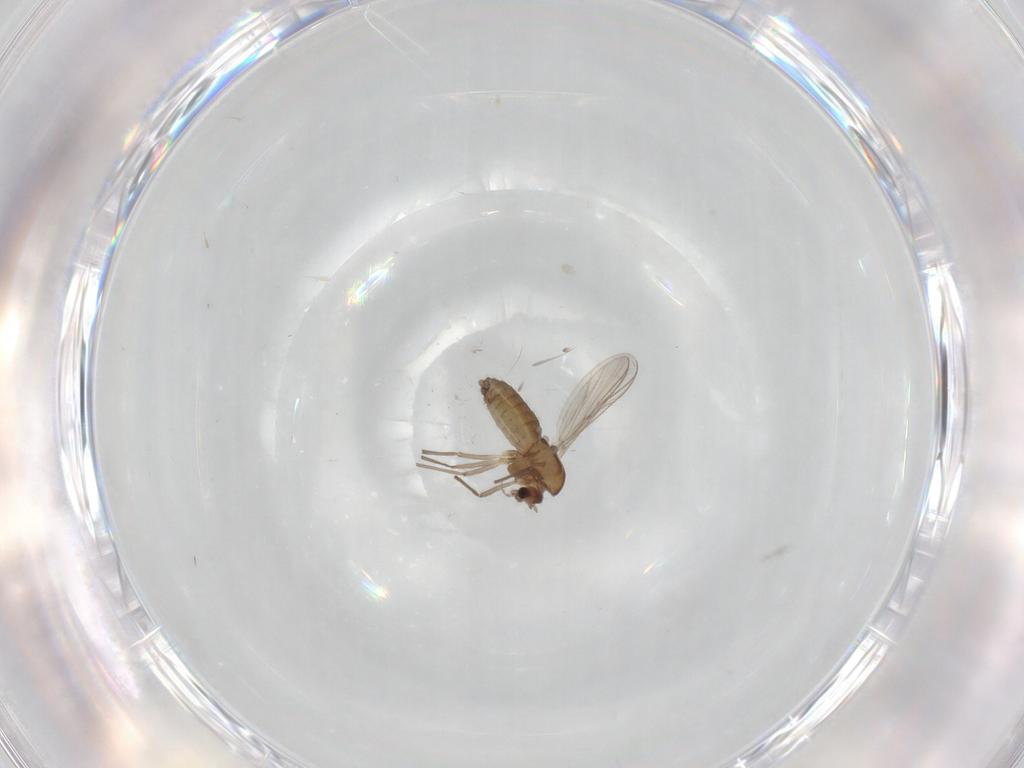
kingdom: Animalia
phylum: Arthropoda
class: Insecta
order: Diptera
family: Chironomidae
